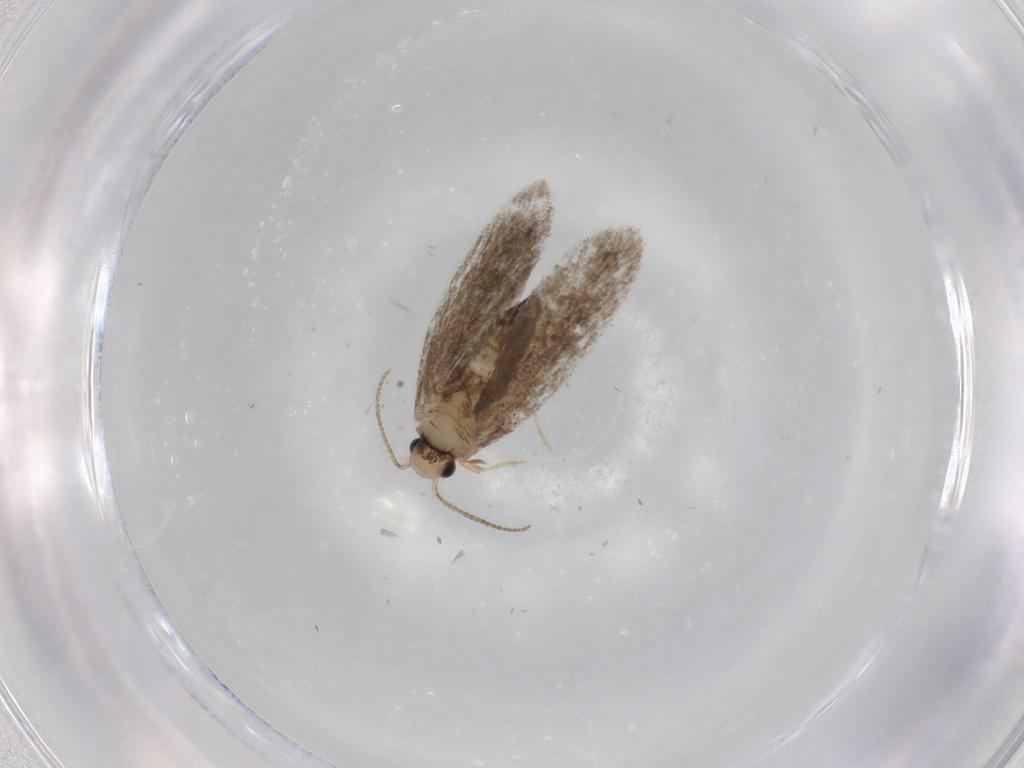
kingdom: Animalia
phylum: Arthropoda
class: Insecta
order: Lepidoptera
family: Psychidae
